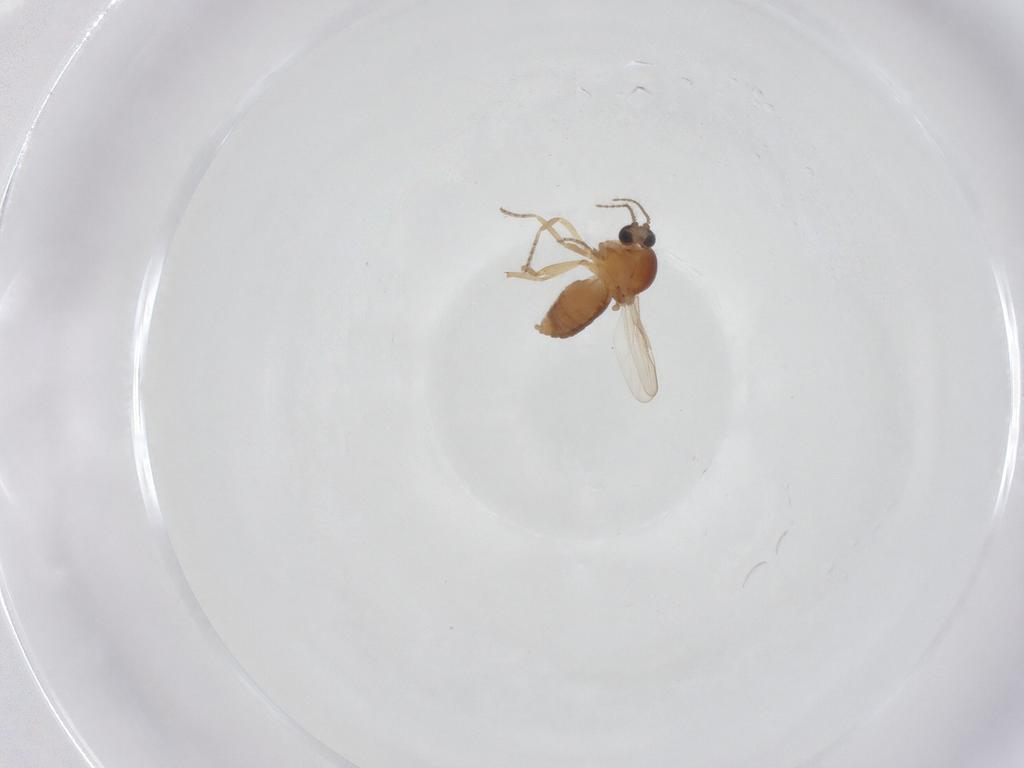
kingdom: Animalia
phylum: Arthropoda
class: Insecta
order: Diptera
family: Ceratopogonidae
